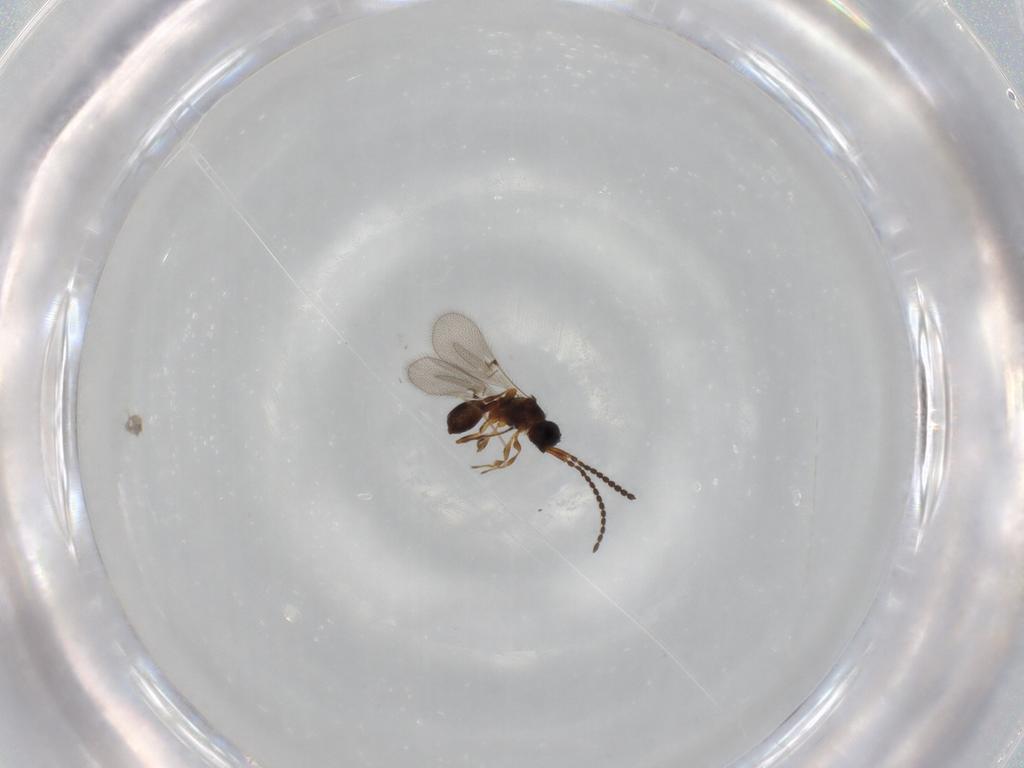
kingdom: Animalia
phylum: Arthropoda
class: Insecta
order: Hymenoptera
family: Diapriidae
